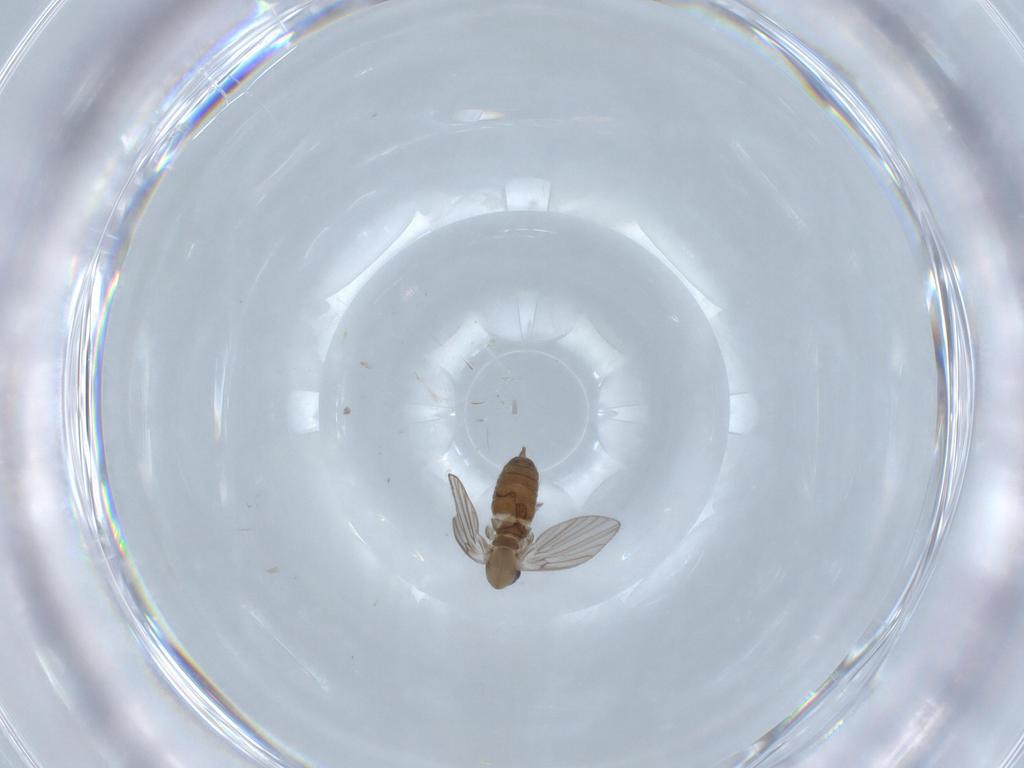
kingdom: Animalia
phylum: Arthropoda
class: Insecta
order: Diptera
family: Psychodidae
